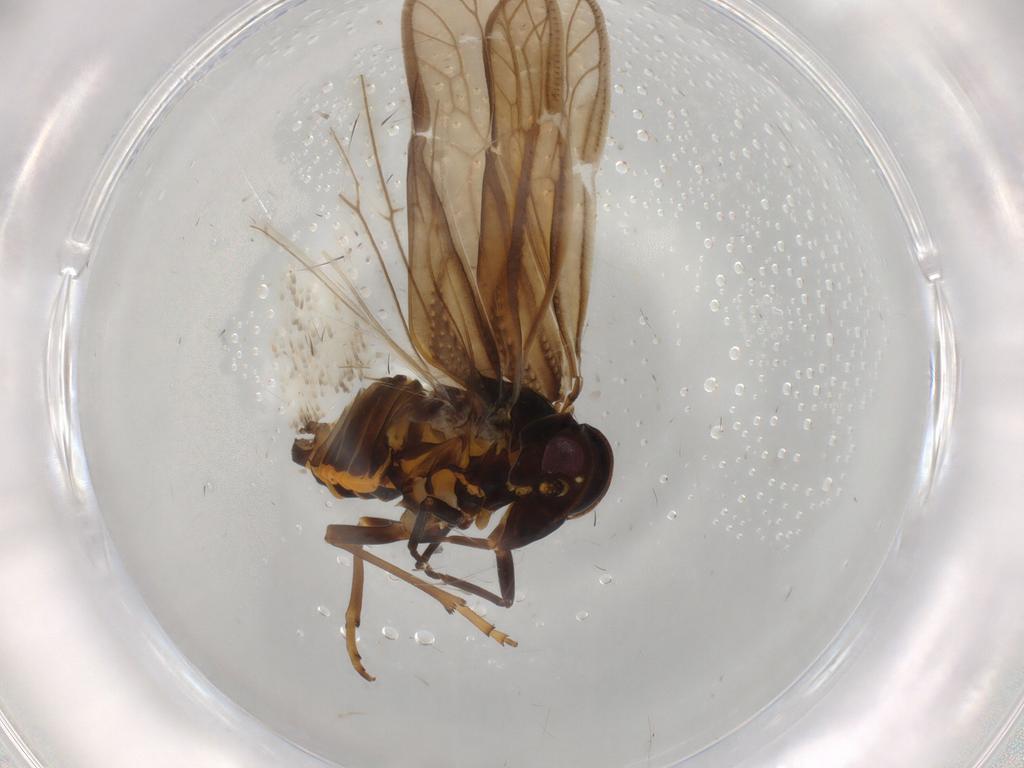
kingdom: Animalia
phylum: Arthropoda
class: Insecta
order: Hemiptera
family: Meenoplidae
